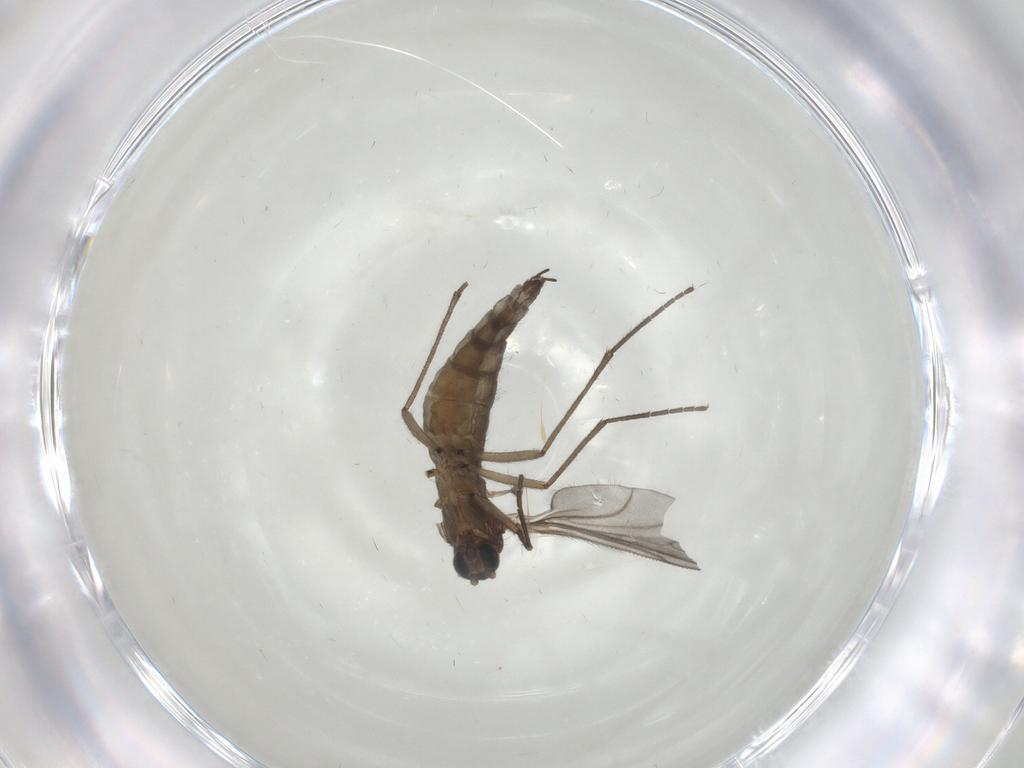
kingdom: Animalia
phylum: Arthropoda
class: Insecta
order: Diptera
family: Sciaridae
